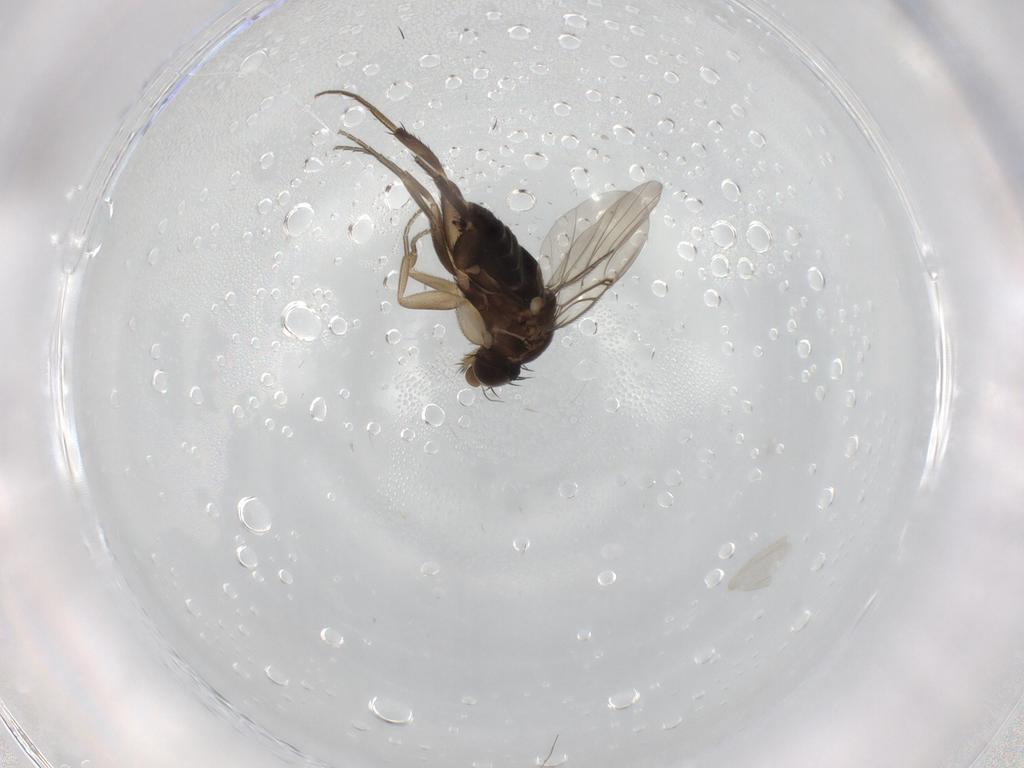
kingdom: Animalia
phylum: Arthropoda
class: Insecta
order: Diptera
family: Phoridae
